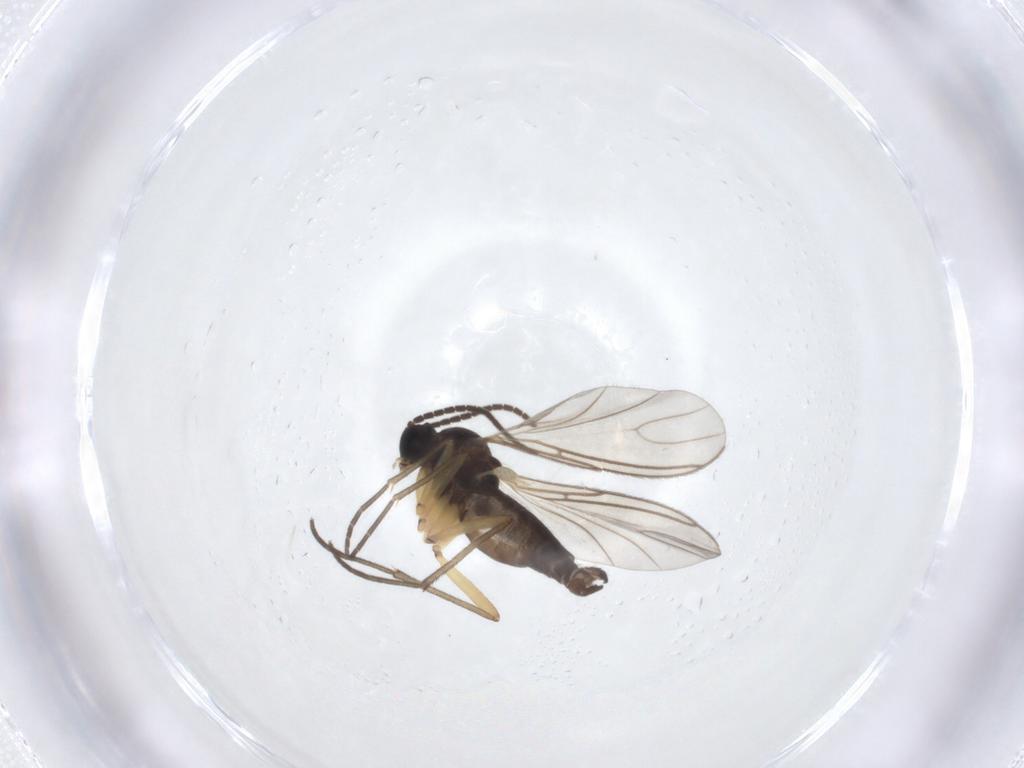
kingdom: Animalia
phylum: Arthropoda
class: Insecta
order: Diptera
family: Sciaridae
